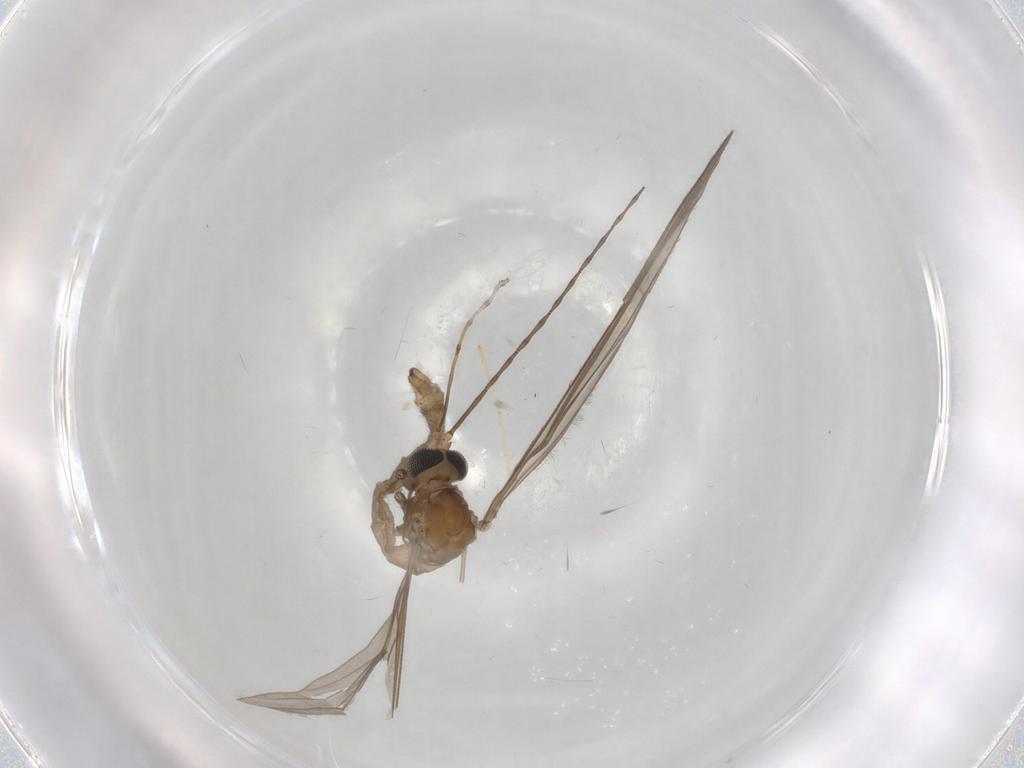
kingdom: Animalia
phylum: Arthropoda
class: Insecta
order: Diptera
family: Limoniidae
